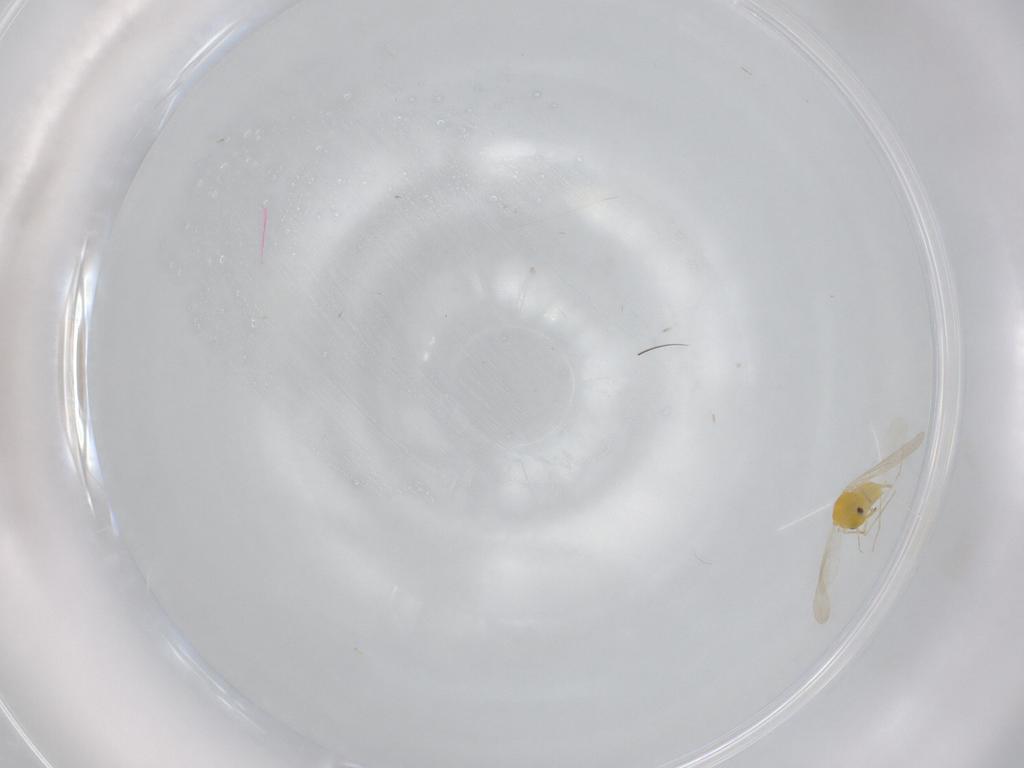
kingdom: Animalia
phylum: Arthropoda
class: Insecta
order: Hemiptera
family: Aleyrodidae
